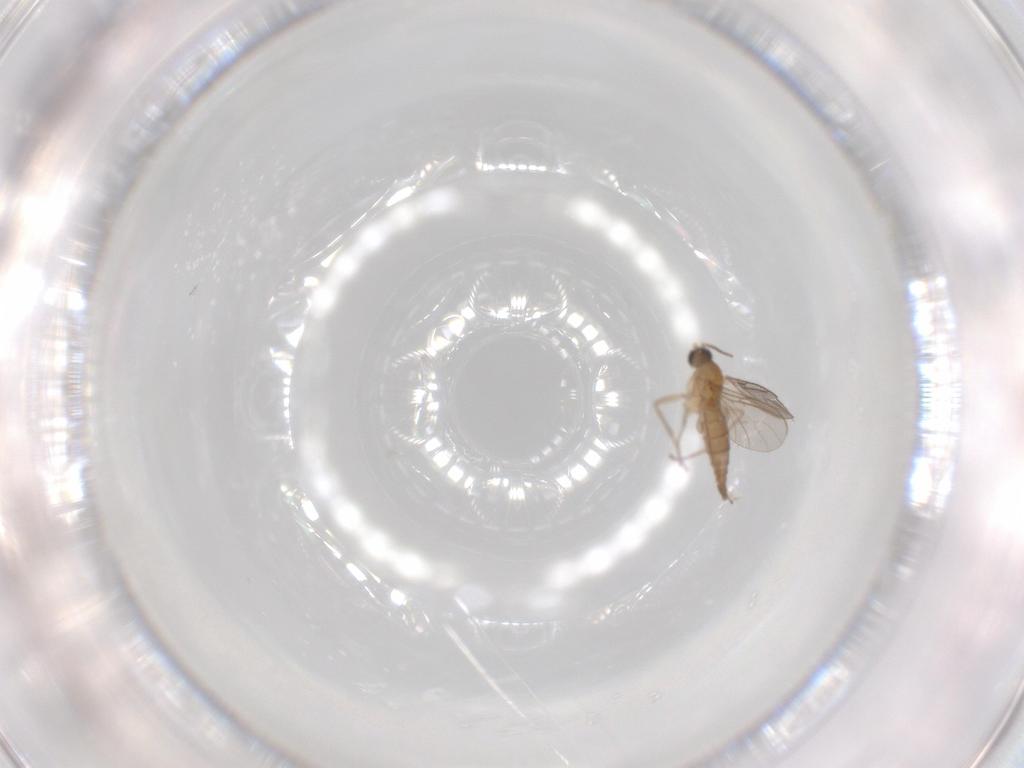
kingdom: Animalia
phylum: Arthropoda
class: Insecta
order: Diptera
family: Sciaridae
